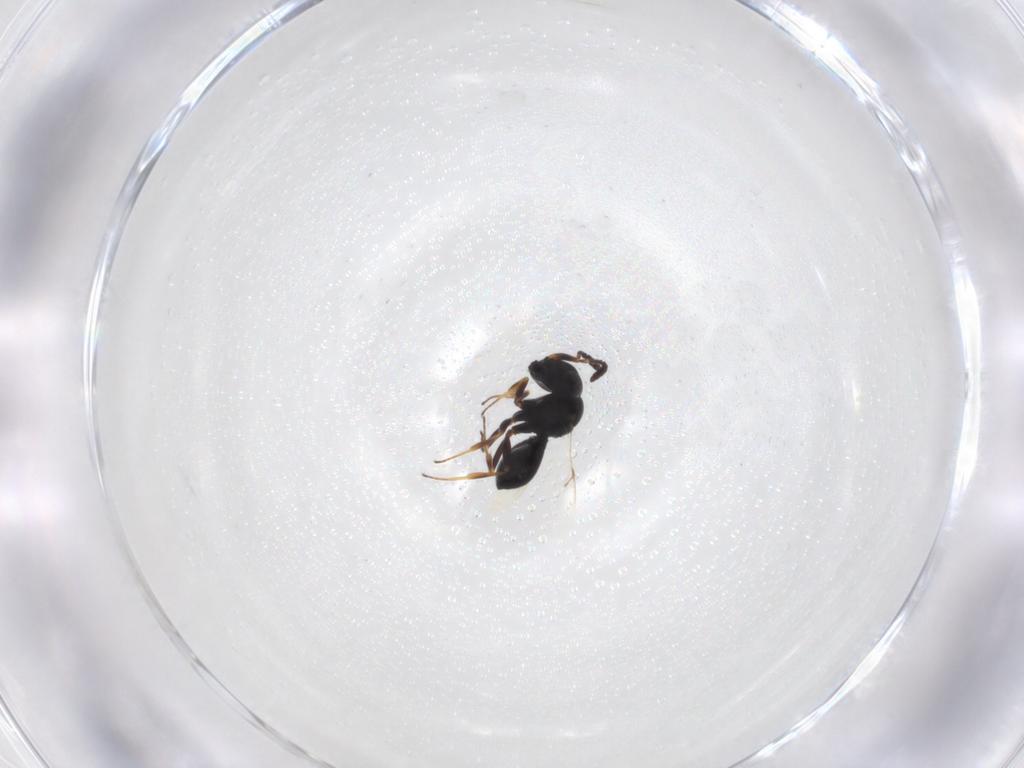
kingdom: Animalia
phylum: Arthropoda
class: Insecta
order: Hymenoptera
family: Scelionidae
